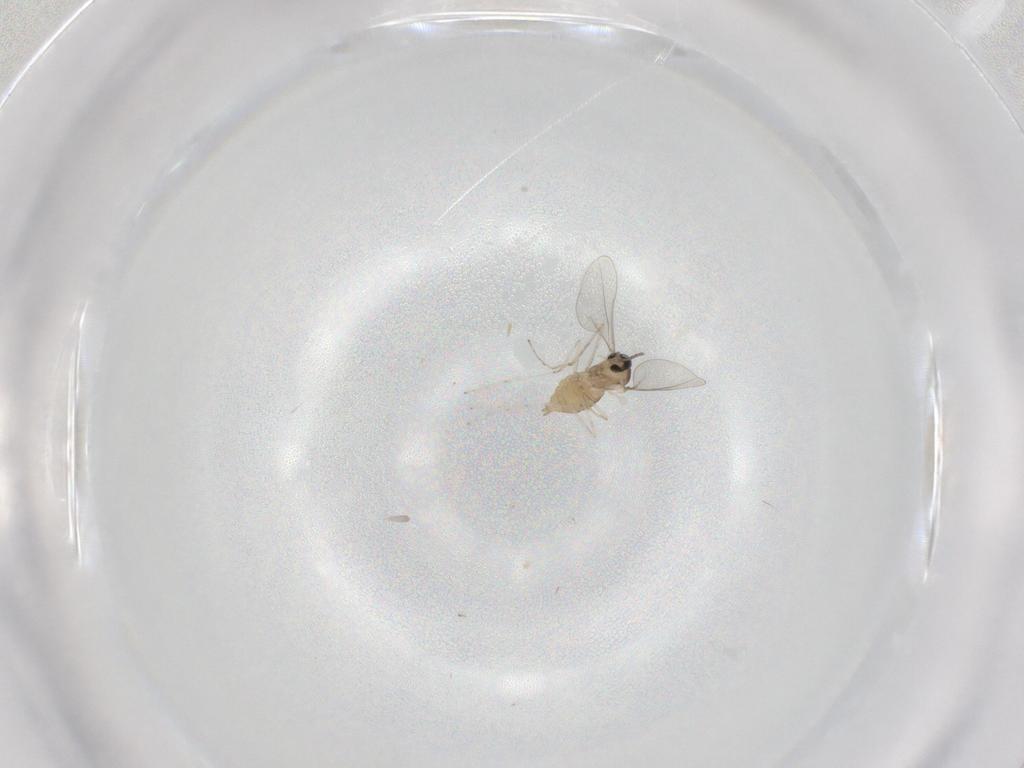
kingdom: Animalia
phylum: Arthropoda
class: Insecta
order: Diptera
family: Cecidomyiidae
